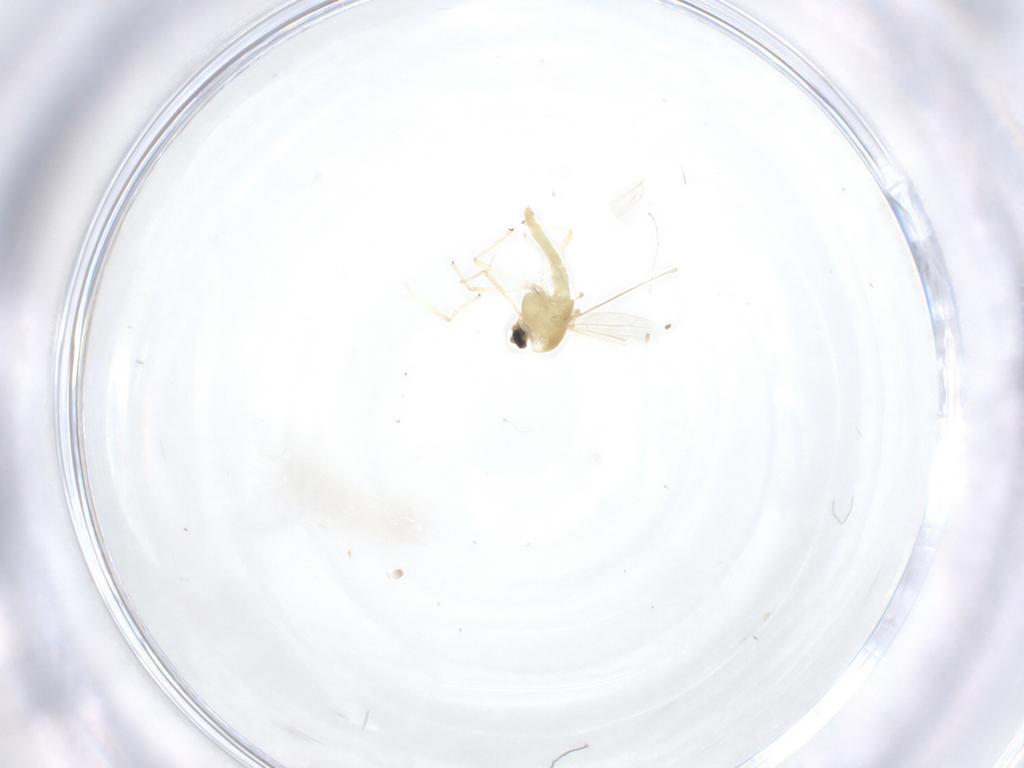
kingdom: Animalia
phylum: Arthropoda
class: Insecta
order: Diptera
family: Chironomidae
